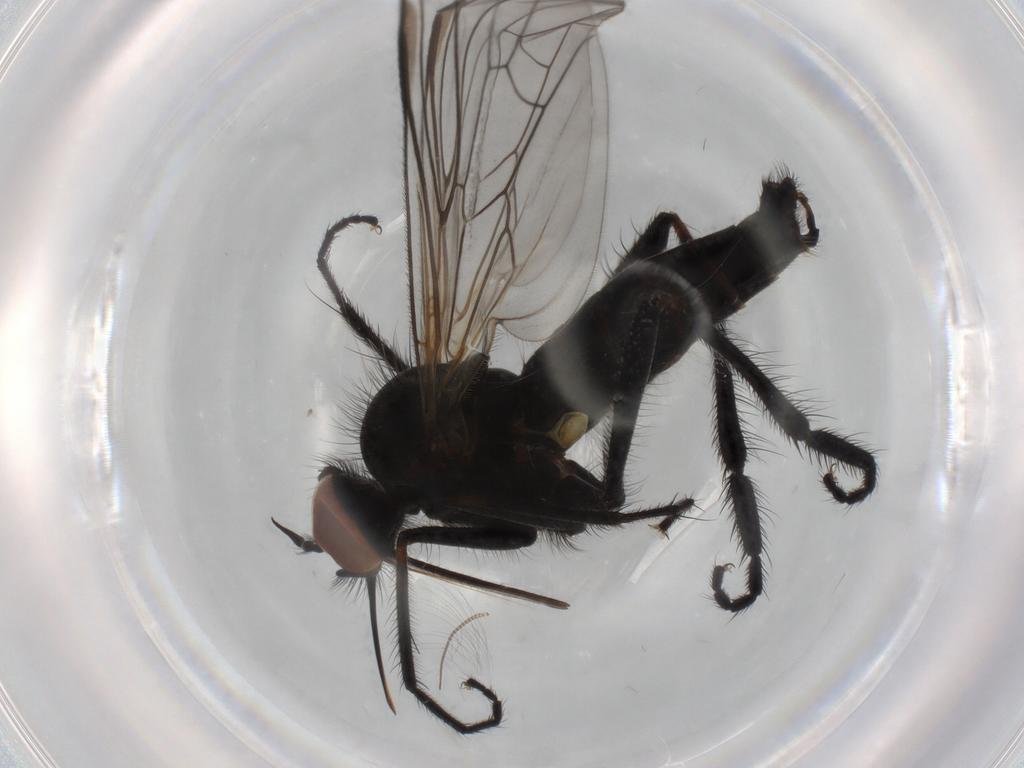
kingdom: Animalia
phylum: Arthropoda
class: Insecta
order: Diptera
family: Empididae
